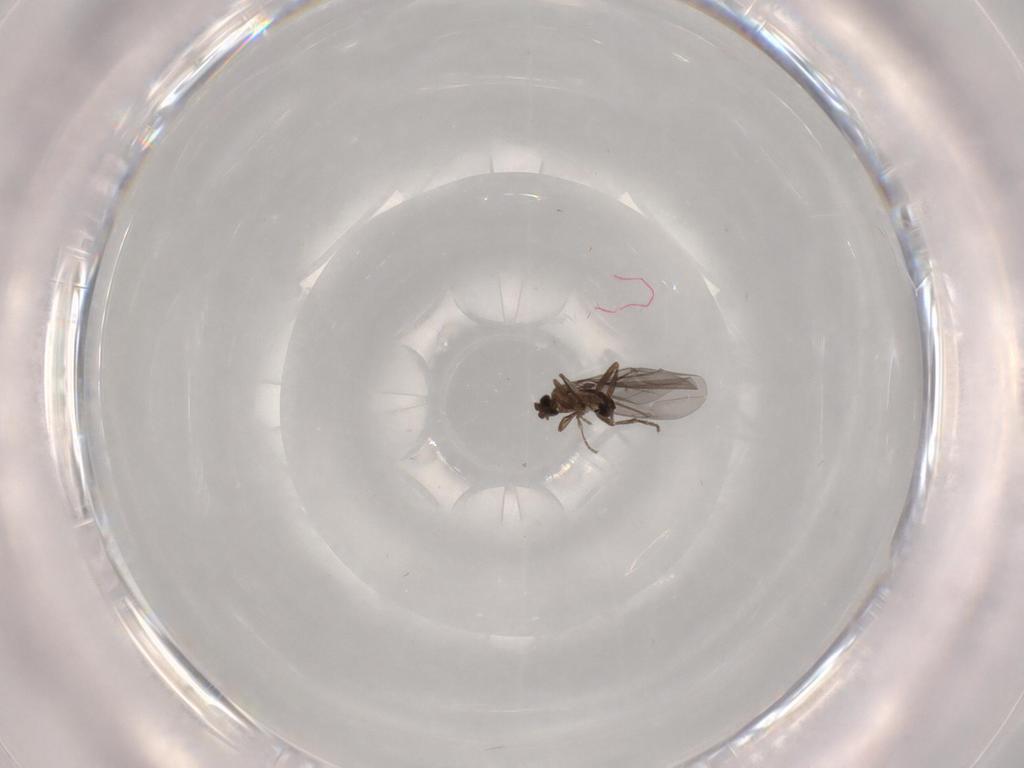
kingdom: Animalia
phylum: Arthropoda
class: Insecta
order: Diptera
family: Phoridae
